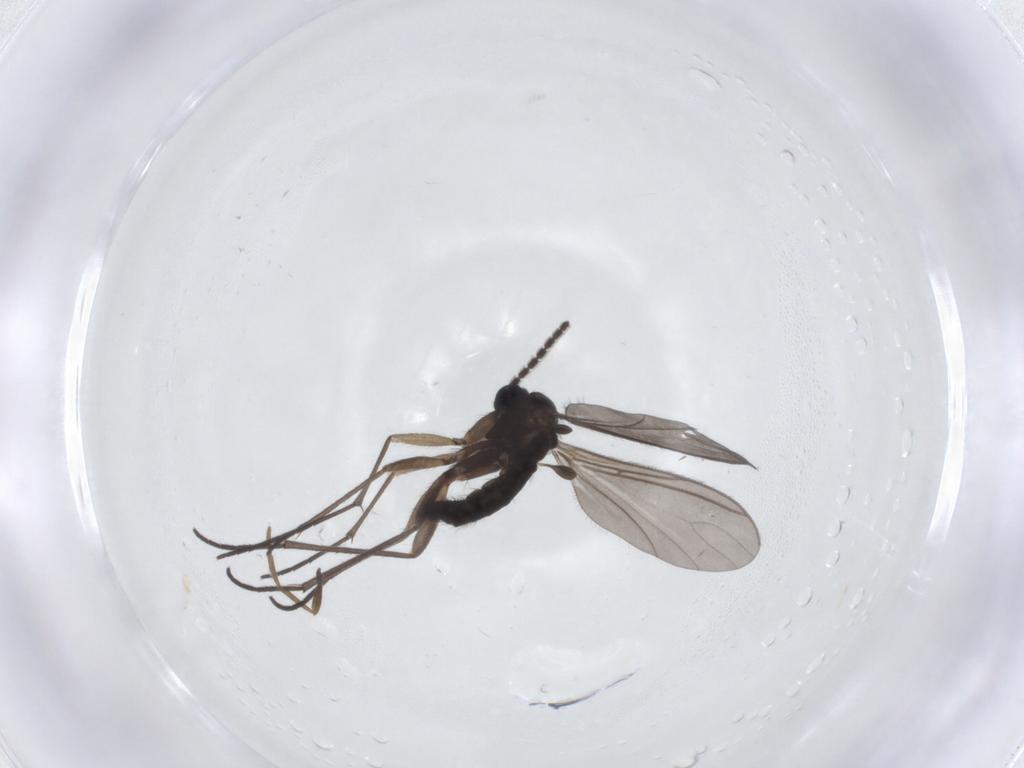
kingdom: Animalia
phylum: Arthropoda
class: Insecta
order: Diptera
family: Sciaridae
